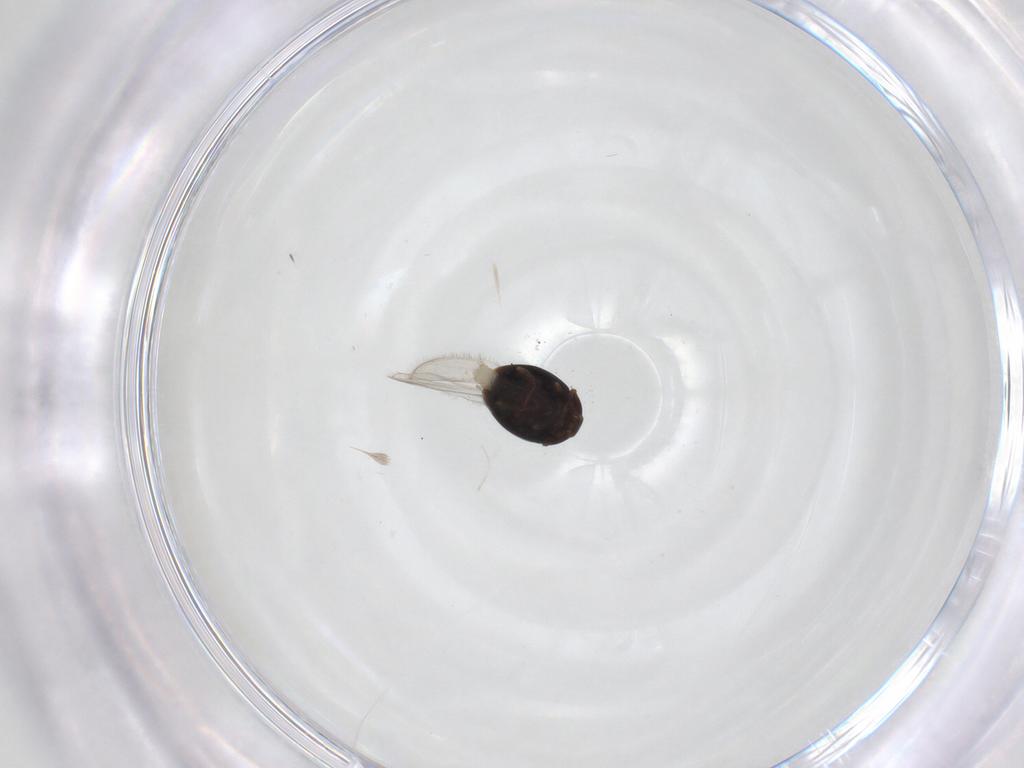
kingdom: Animalia
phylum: Arthropoda
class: Insecta
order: Coleoptera
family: Corylophidae
